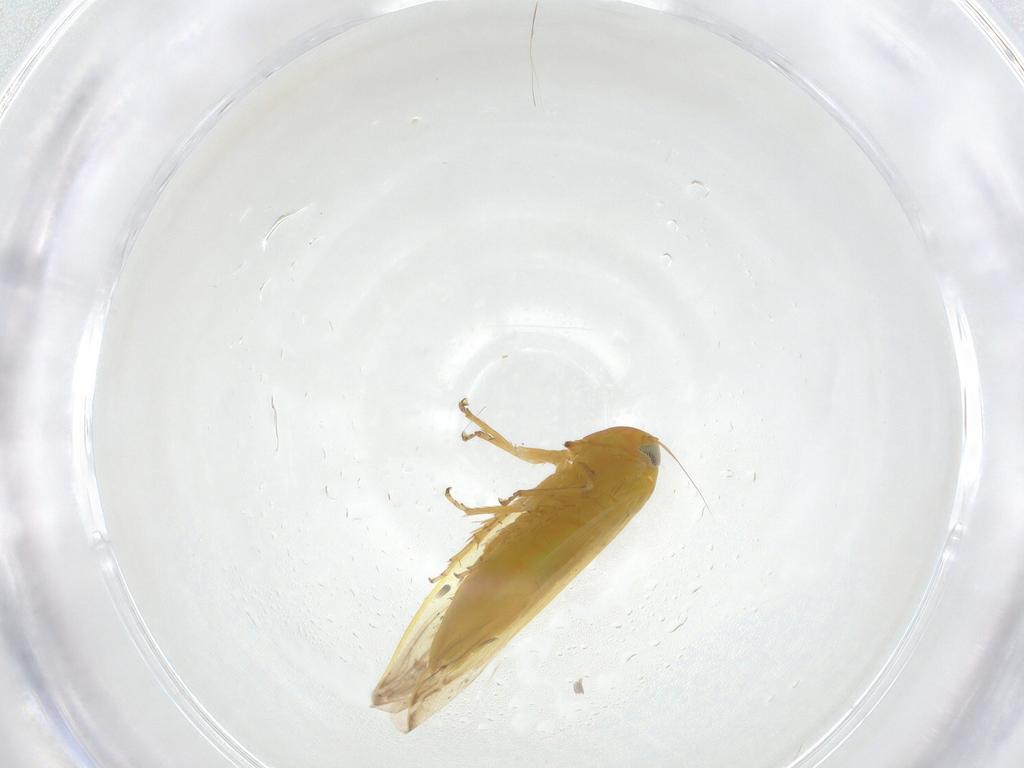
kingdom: Animalia
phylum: Arthropoda
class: Insecta
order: Hemiptera
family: Cicadellidae
